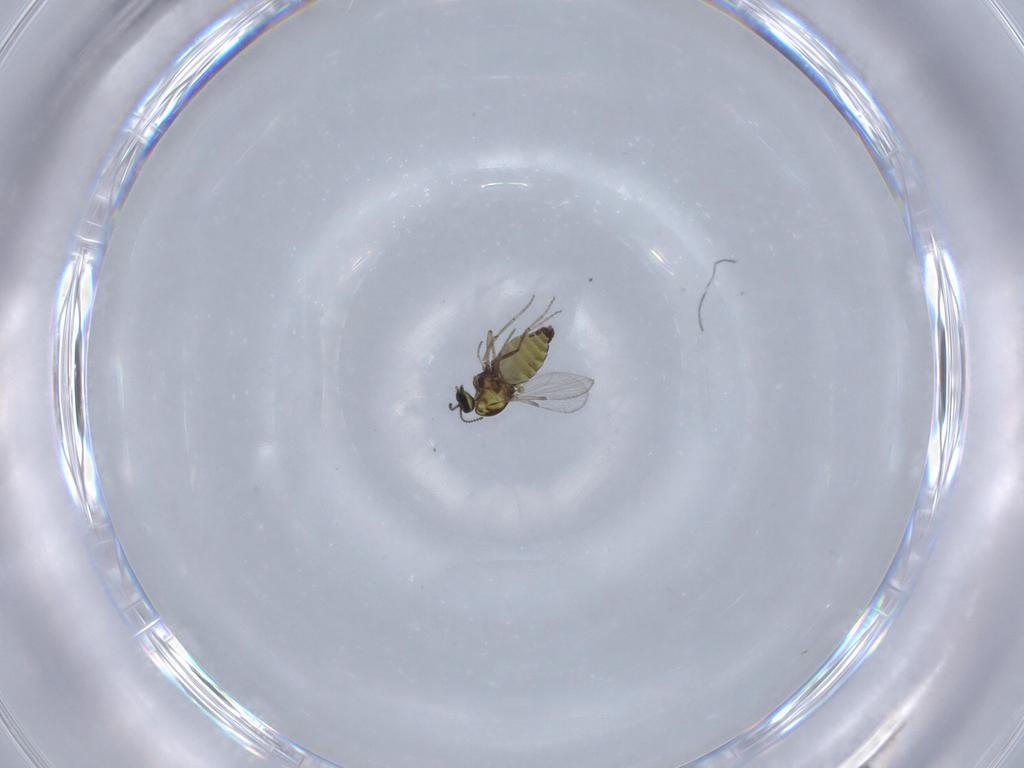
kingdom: Animalia
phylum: Arthropoda
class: Insecta
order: Diptera
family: Ceratopogonidae
